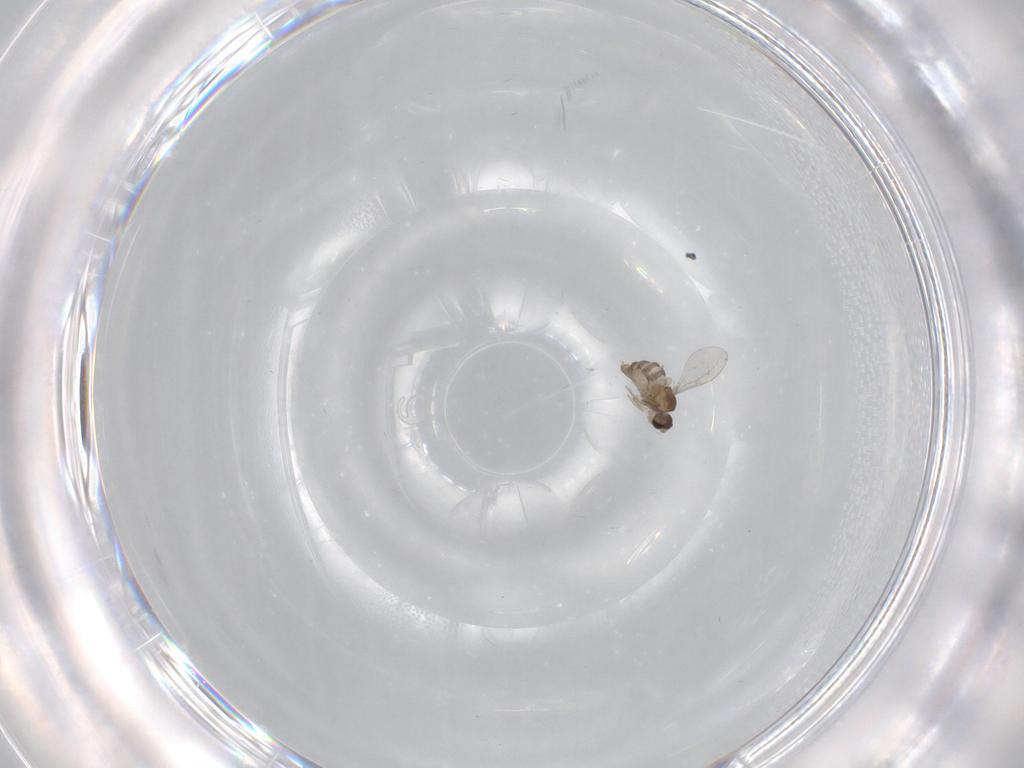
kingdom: Animalia
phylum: Arthropoda
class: Insecta
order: Diptera
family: Cecidomyiidae
